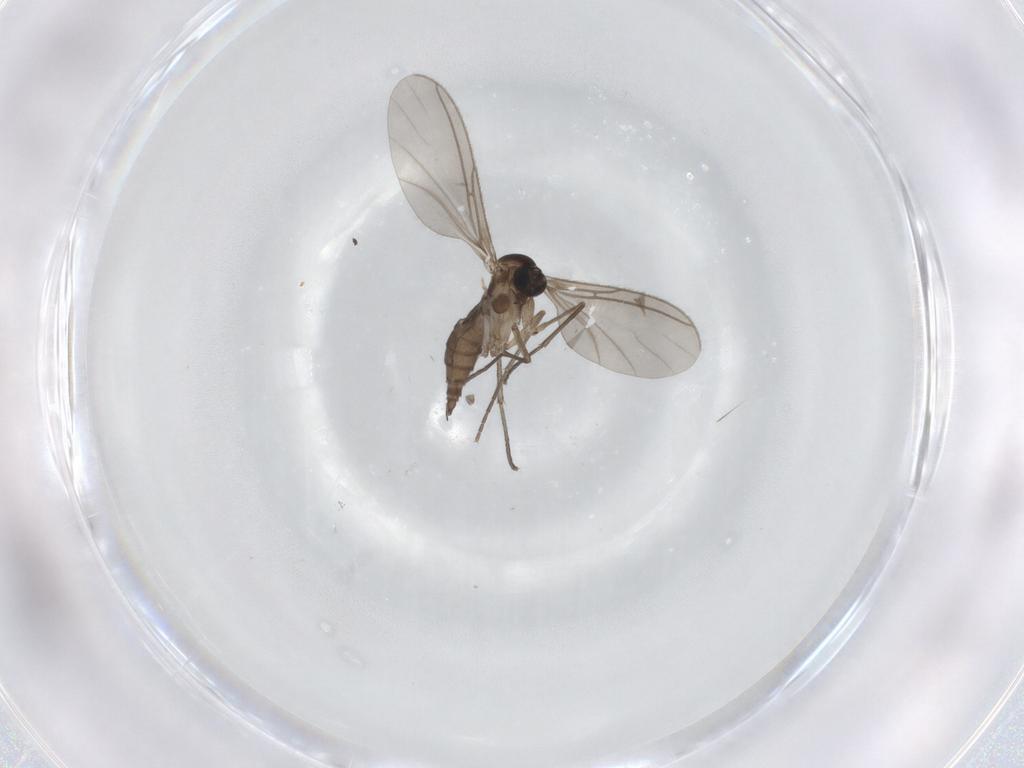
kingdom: Animalia
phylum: Arthropoda
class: Insecta
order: Diptera
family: Sciaridae
